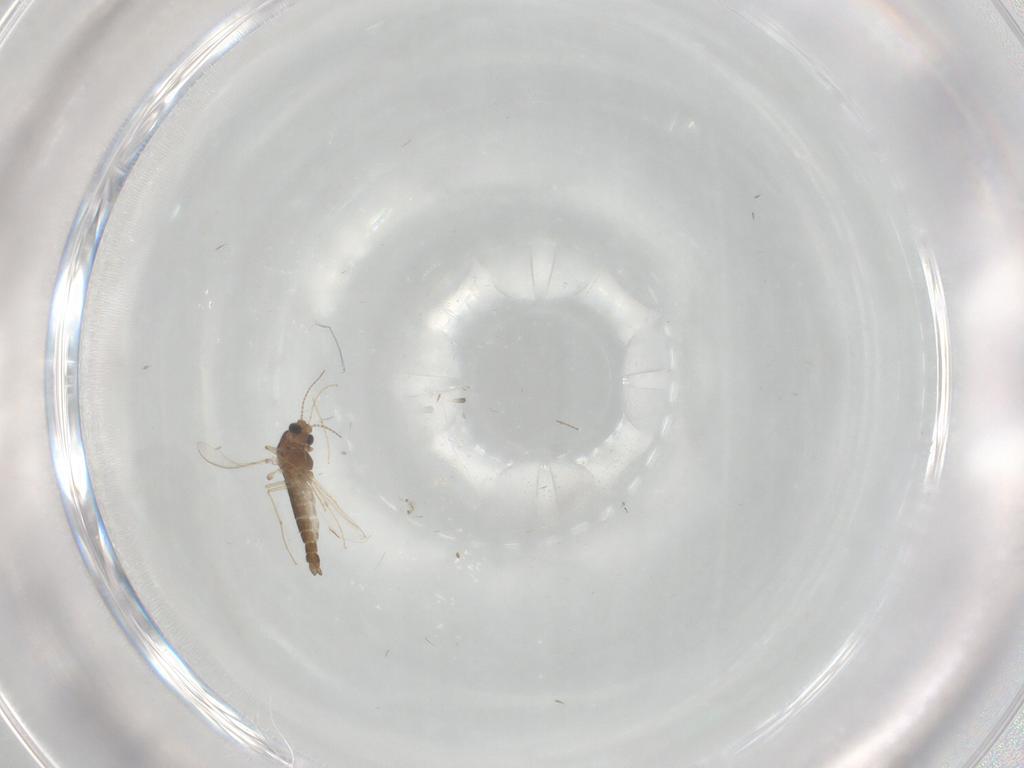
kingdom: Animalia
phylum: Arthropoda
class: Insecta
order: Diptera
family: Chironomidae
